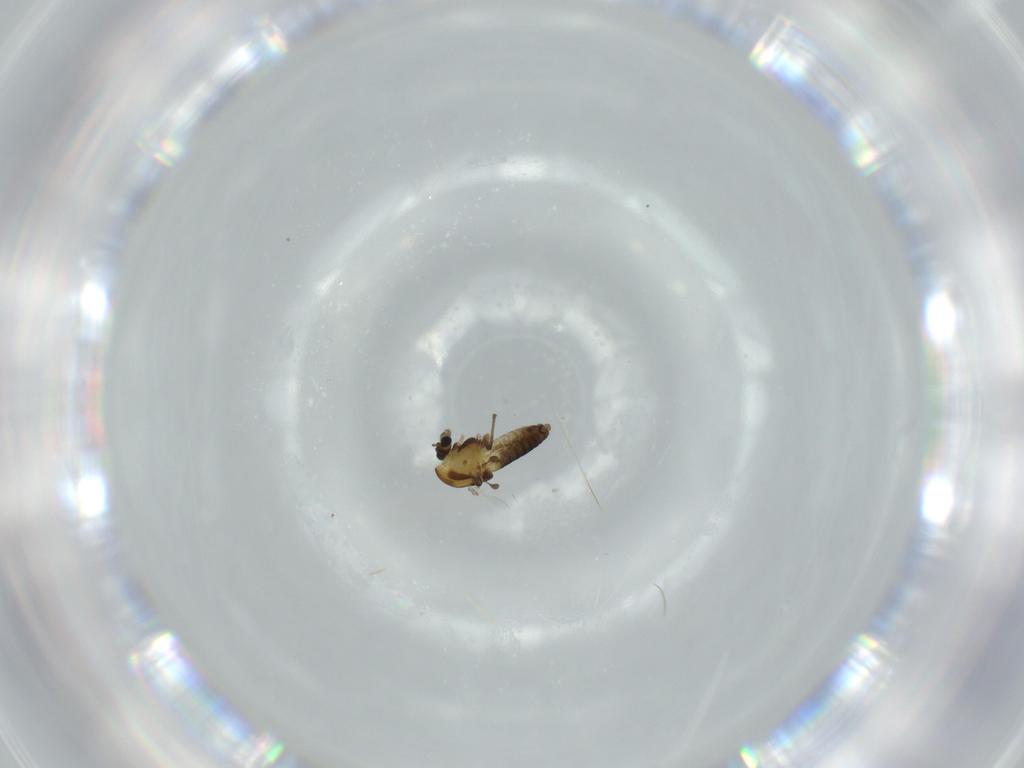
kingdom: Animalia
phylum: Arthropoda
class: Insecta
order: Diptera
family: Chironomidae
